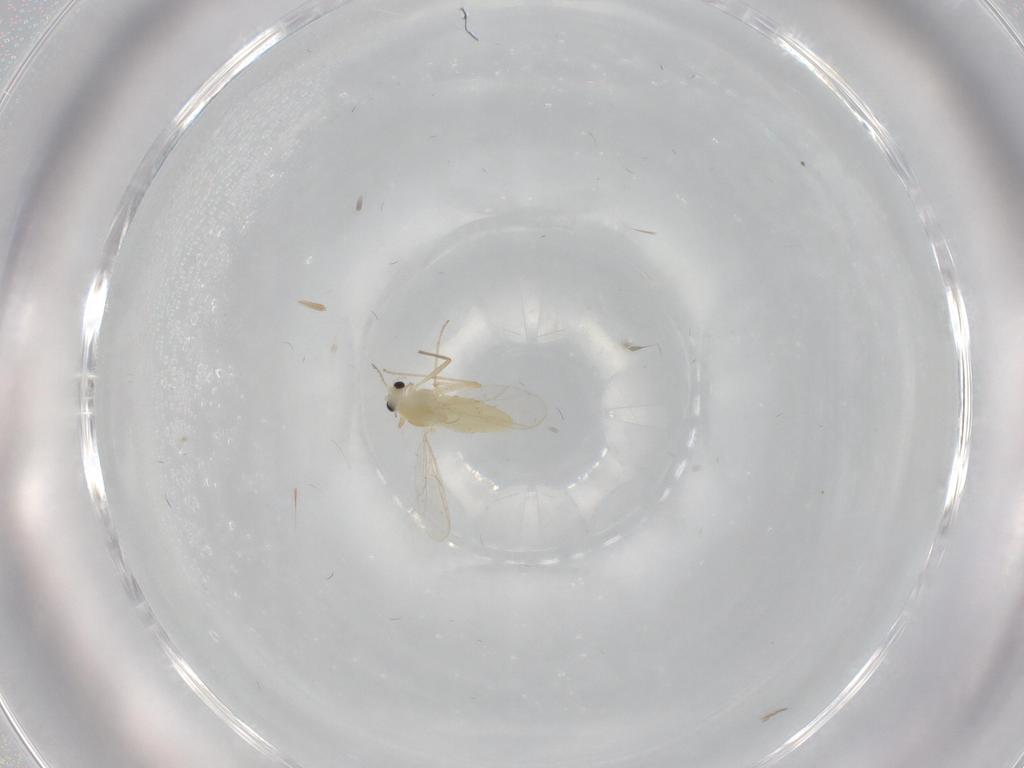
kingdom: Animalia
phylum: Arthropoda
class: Insecta
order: Diptera
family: Chironomidae
